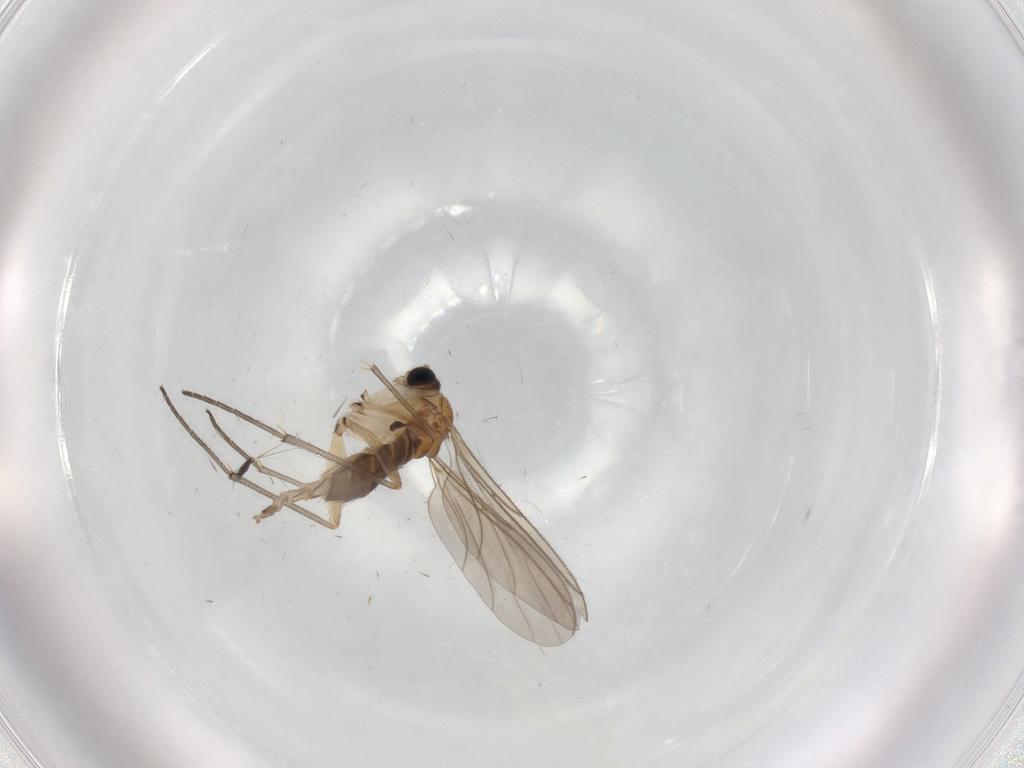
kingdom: Animalia
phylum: Arthropoda
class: Insecta
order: Diptera
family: Chironomidae
